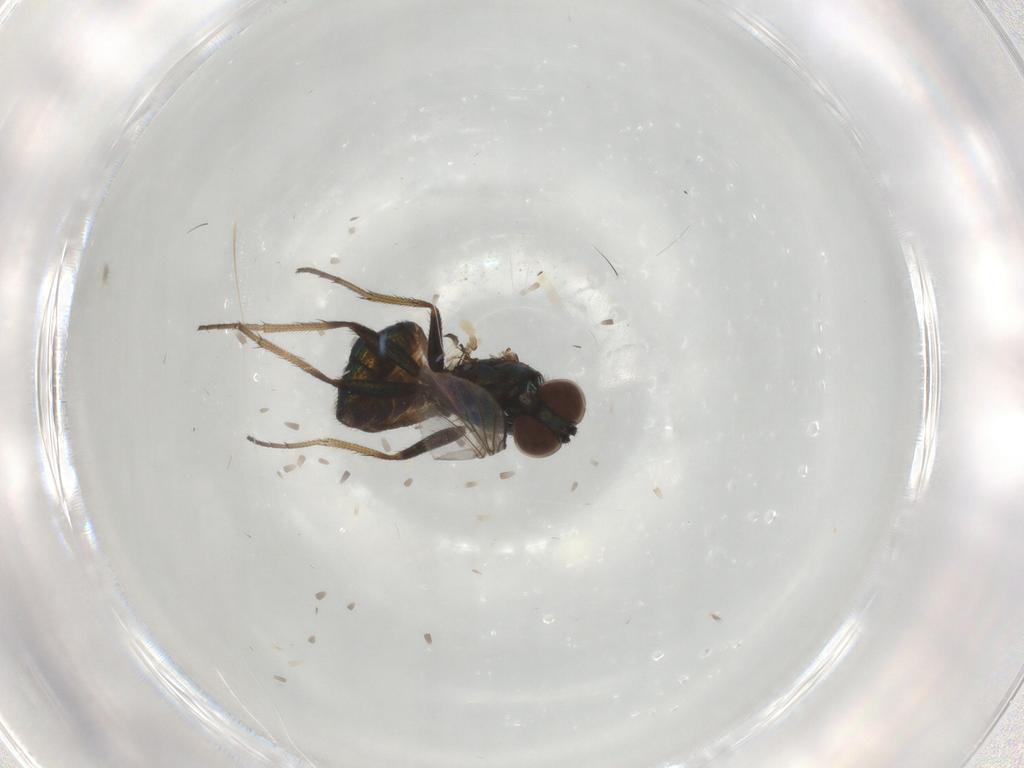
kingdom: Animalia
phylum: Arthropoda
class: Insecta
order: Diptera
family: Dolichopodidae
